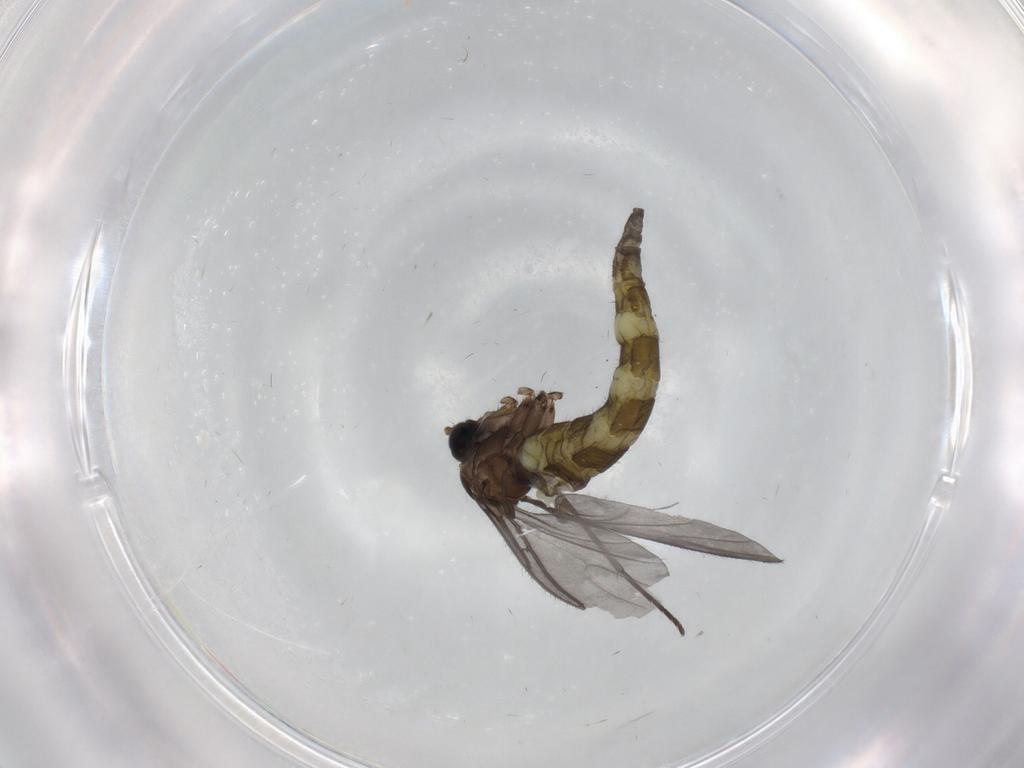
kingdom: Animalia
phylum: Arthropoda
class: Insecta
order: Diptera
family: Sciaridae
